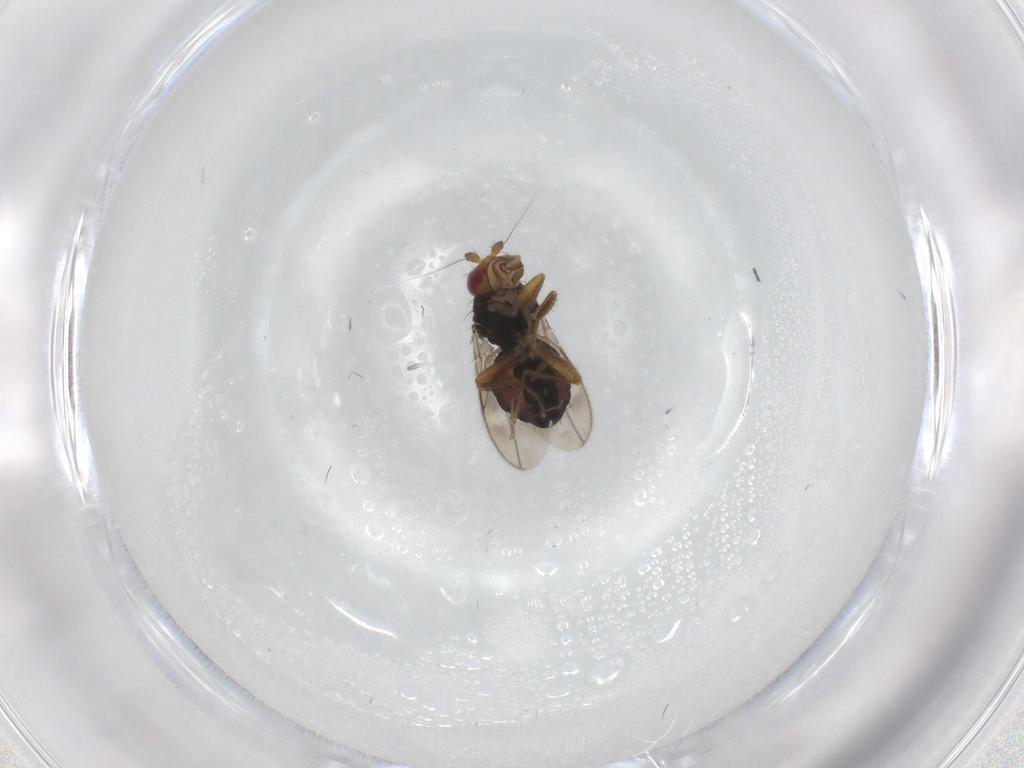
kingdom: Animalia
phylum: Arthropoda
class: Insecta
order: Diptera
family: Sphaeroceridae
